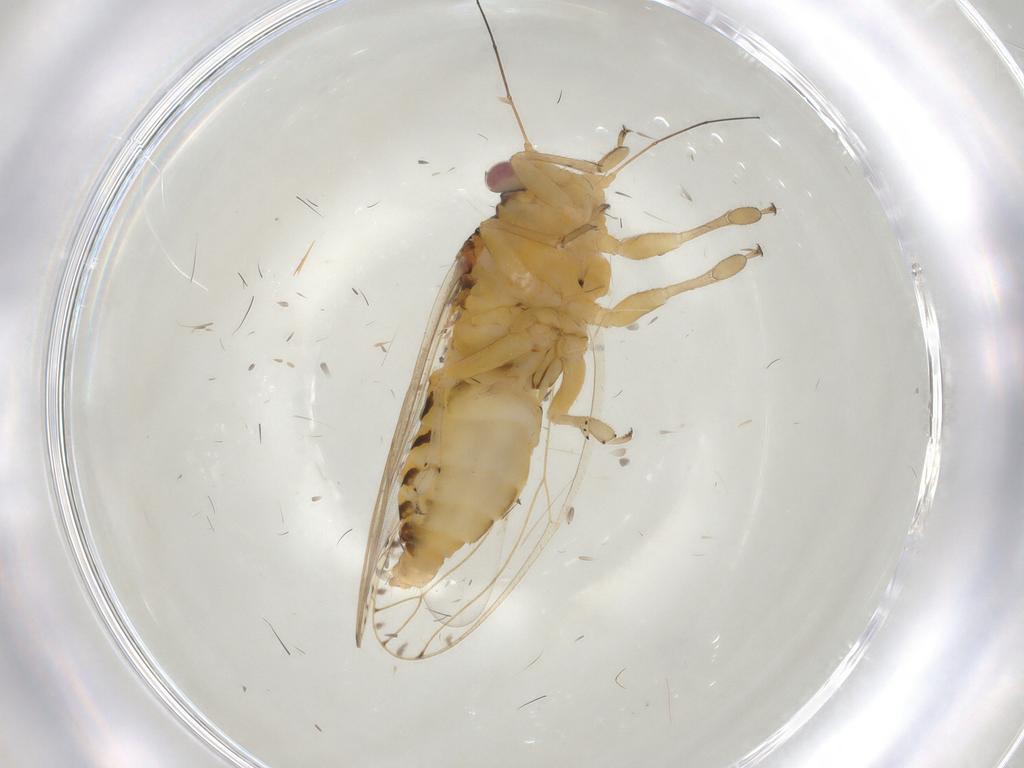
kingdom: Animalia
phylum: Arthropoda
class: Insecta
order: Hemiptera
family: Psylloidea_incertae_sedis
